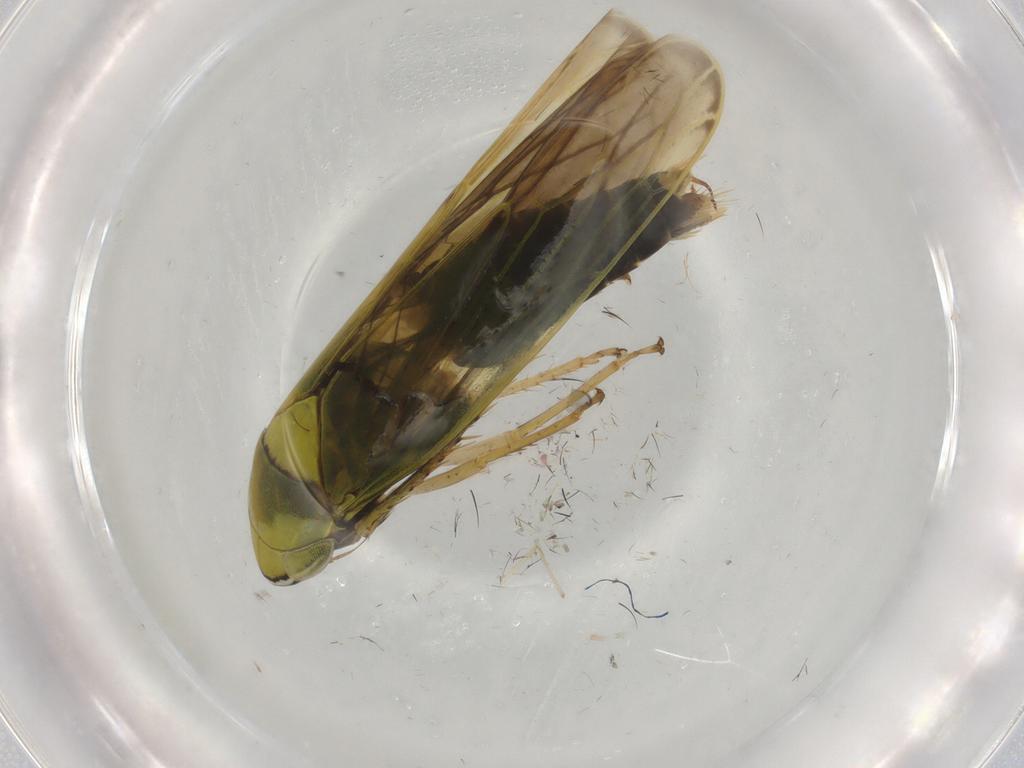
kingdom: Animalia
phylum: Arthropoda
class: Insecta
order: Hemiptera
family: Cicadellidae
